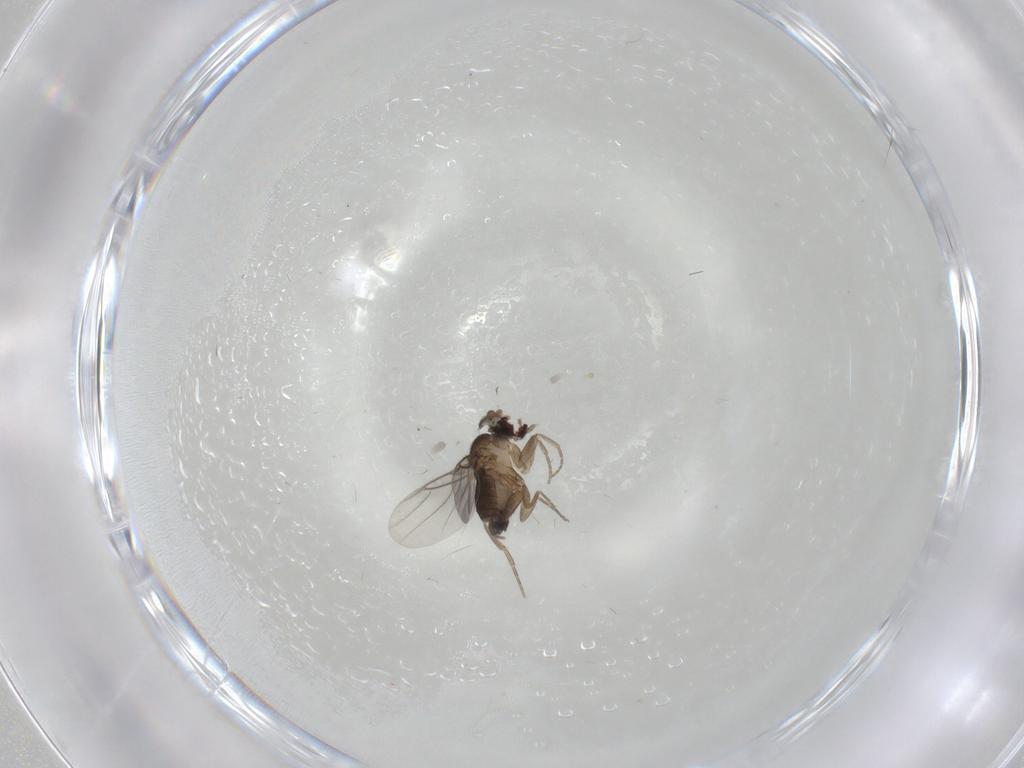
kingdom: Animalia
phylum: Arthropoda
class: Insecta
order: Diptera
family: Phoridae
